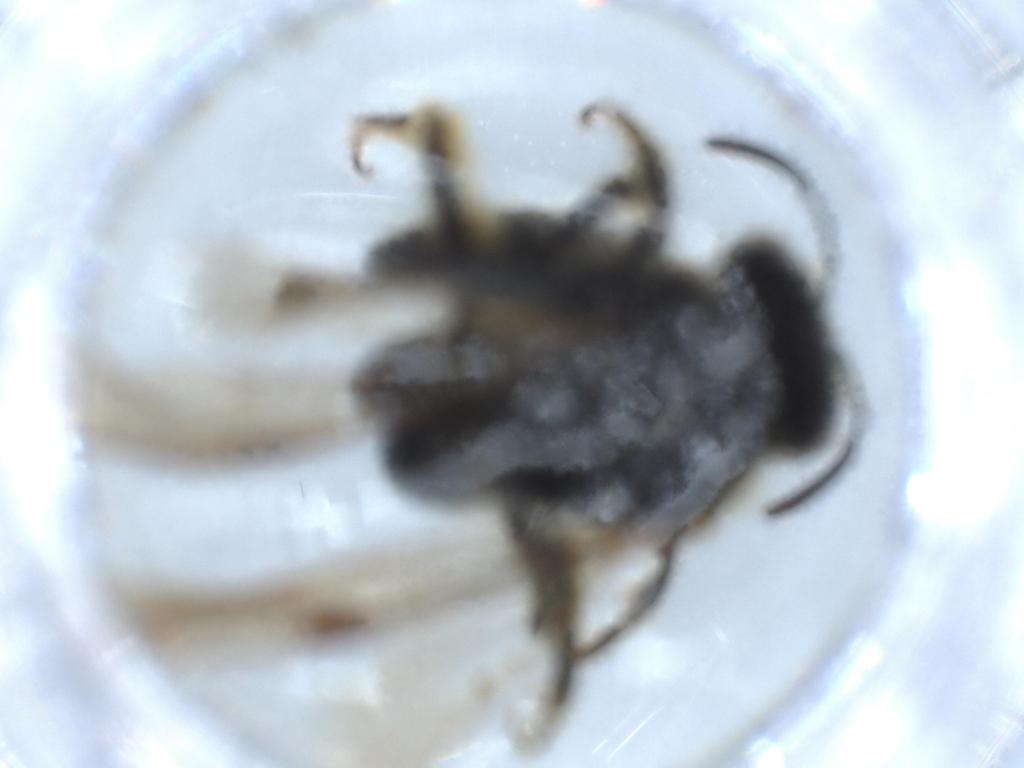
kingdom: Animalia
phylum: Arthropoda
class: Insecta
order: Hymenoptera
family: Halictidae
